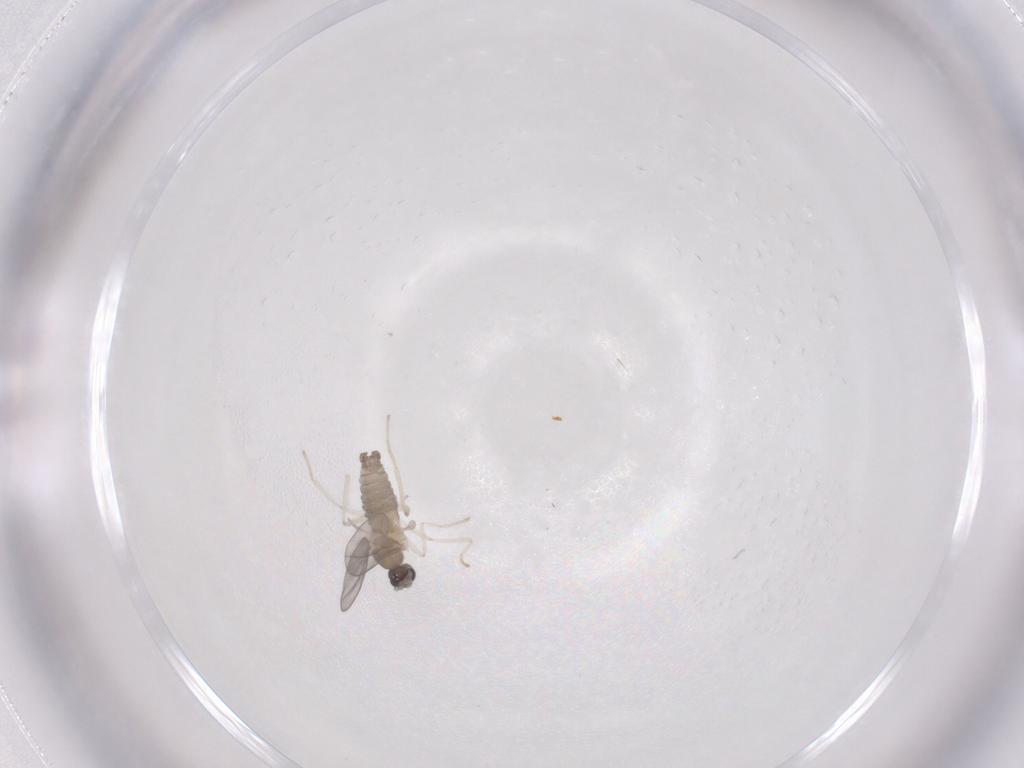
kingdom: Animalia
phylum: Arthropoda
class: Insecta
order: Diptera
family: Cecidomyiidae
